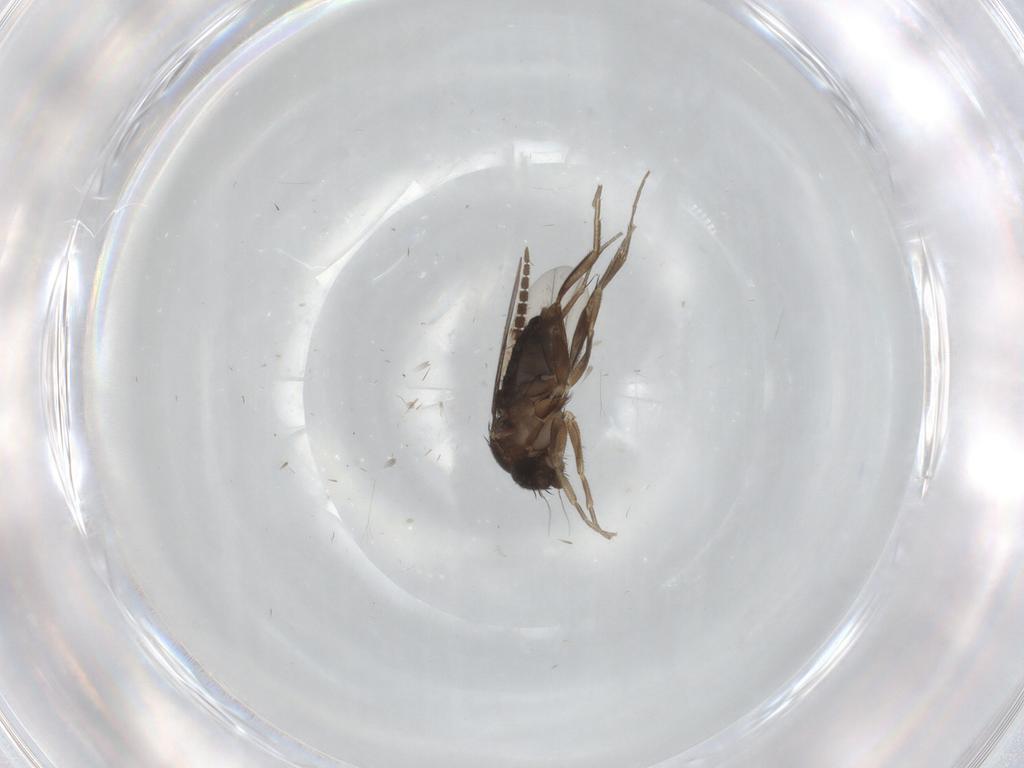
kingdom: Animalia
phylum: Arthropoda
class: Insecta
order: Diptera
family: Phoridae
